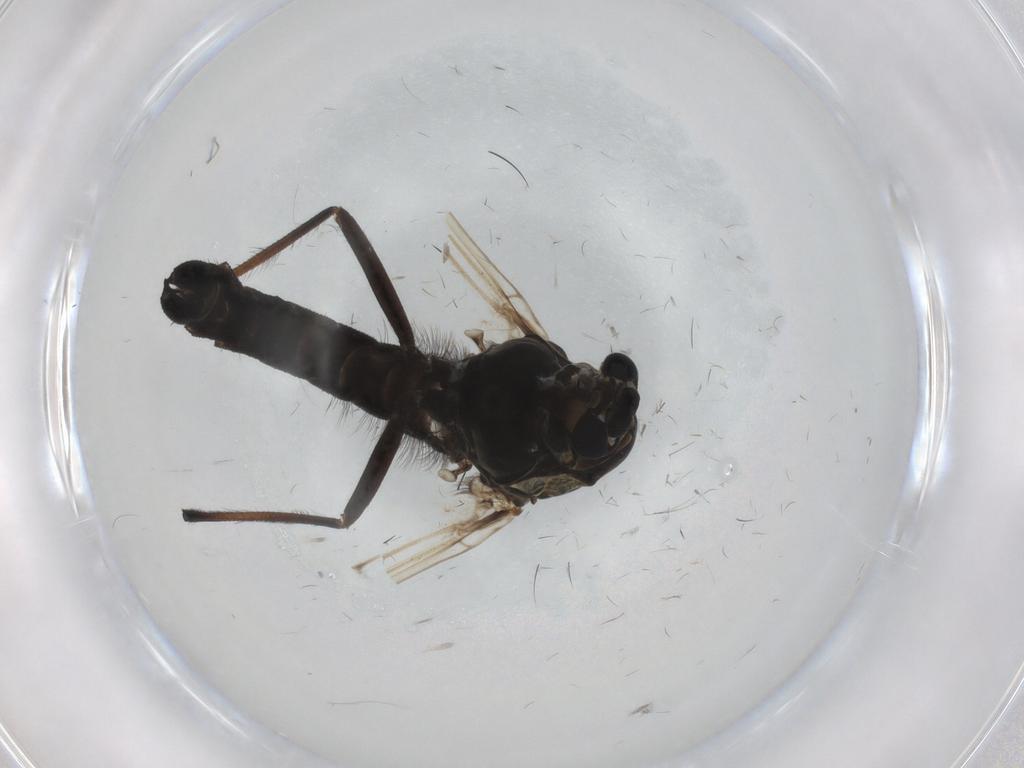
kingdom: Animalia
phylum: Arthropoda
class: Insecta
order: Diptera
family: Chironomidae
